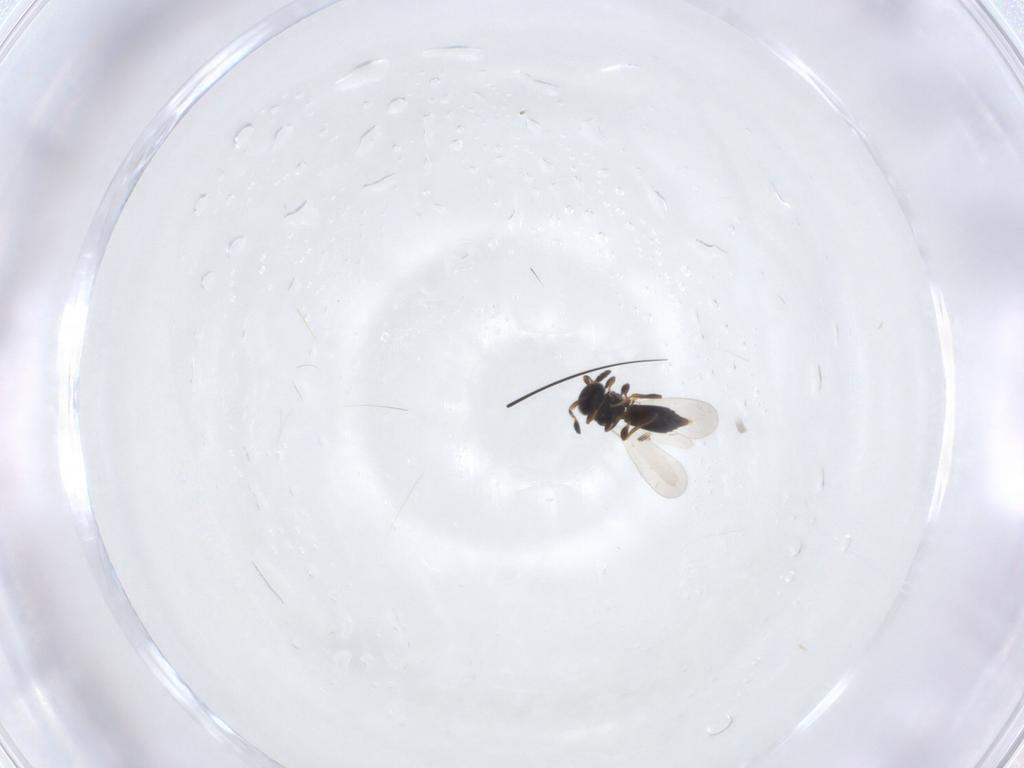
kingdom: Animalia
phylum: Arthropoda
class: Insecta
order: Hymenoptera
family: Platygastridae
